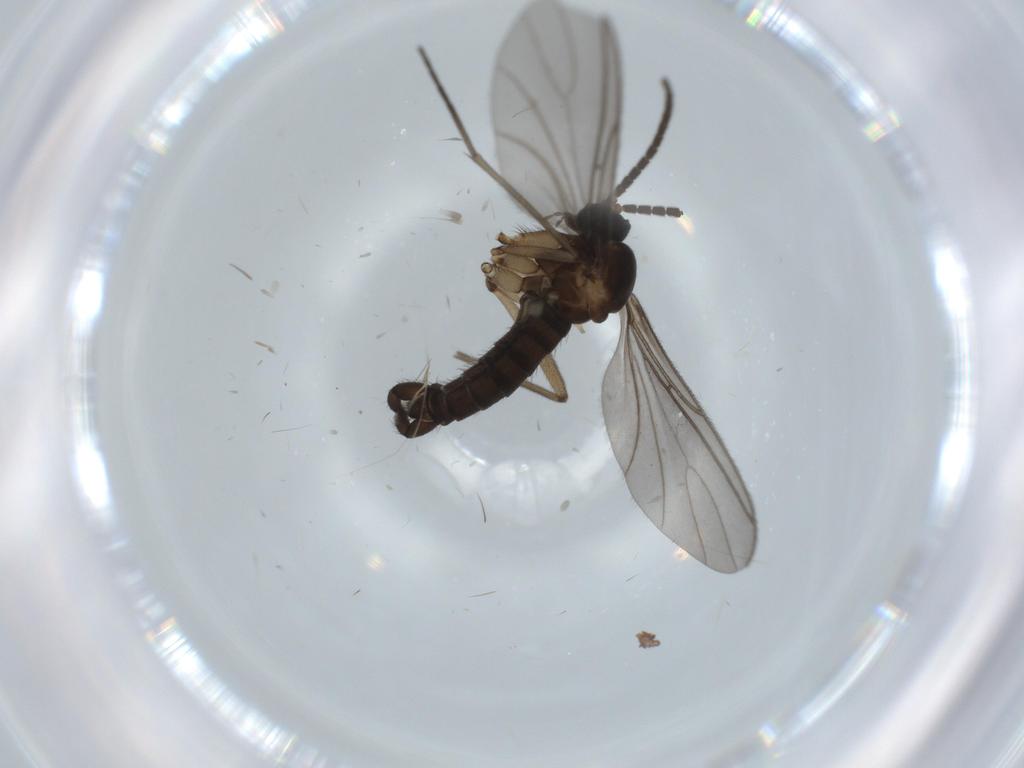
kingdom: Animalia
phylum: Arthropoda
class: Insecta
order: Diptera
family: Sciaridae
